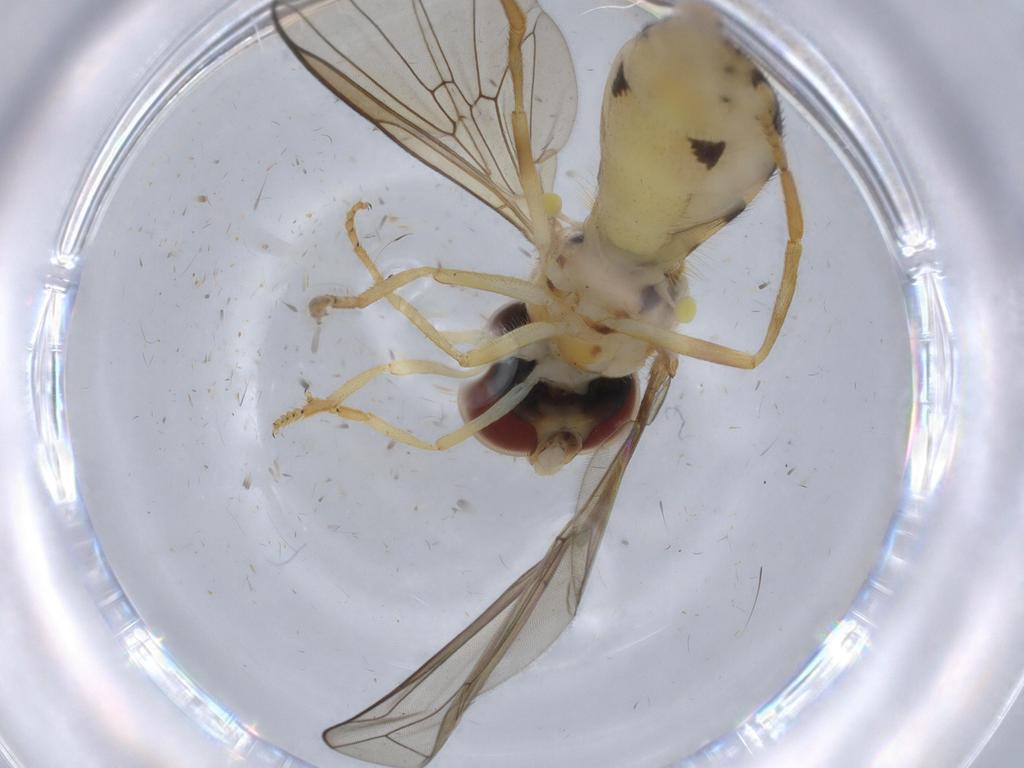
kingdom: Animalia
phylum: Arthropoda
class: Insecta
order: Diptera
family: Syrphidae
